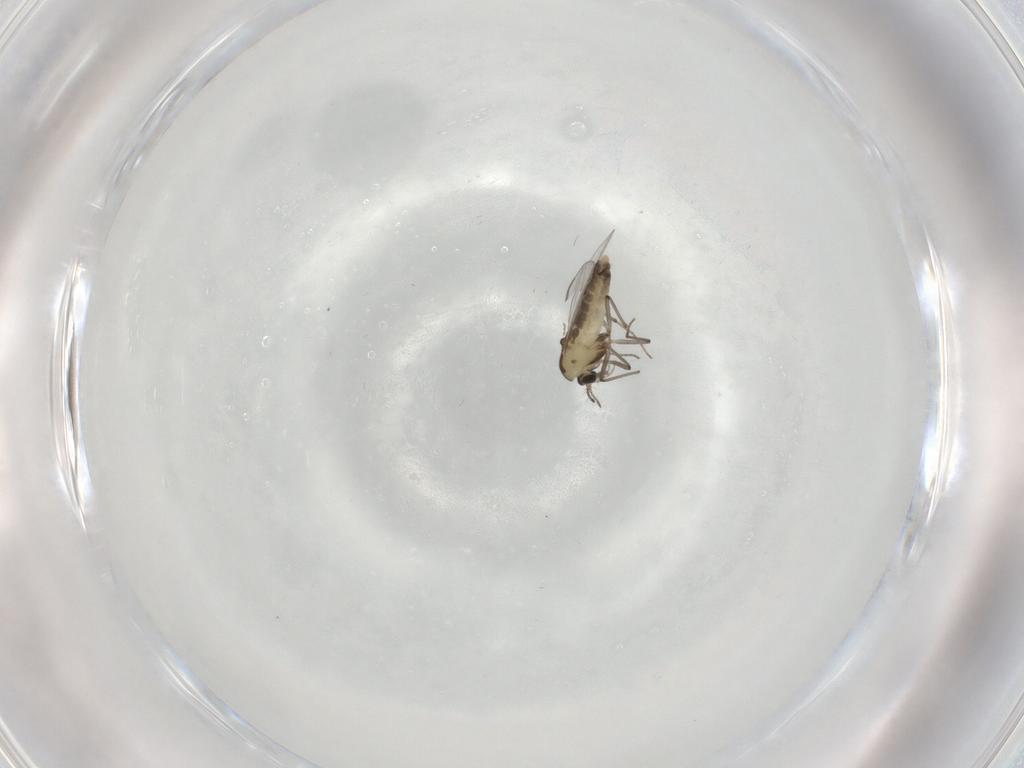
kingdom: Animalia
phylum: Arthropoda
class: Insecta
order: Diptera
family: Chironomidae
